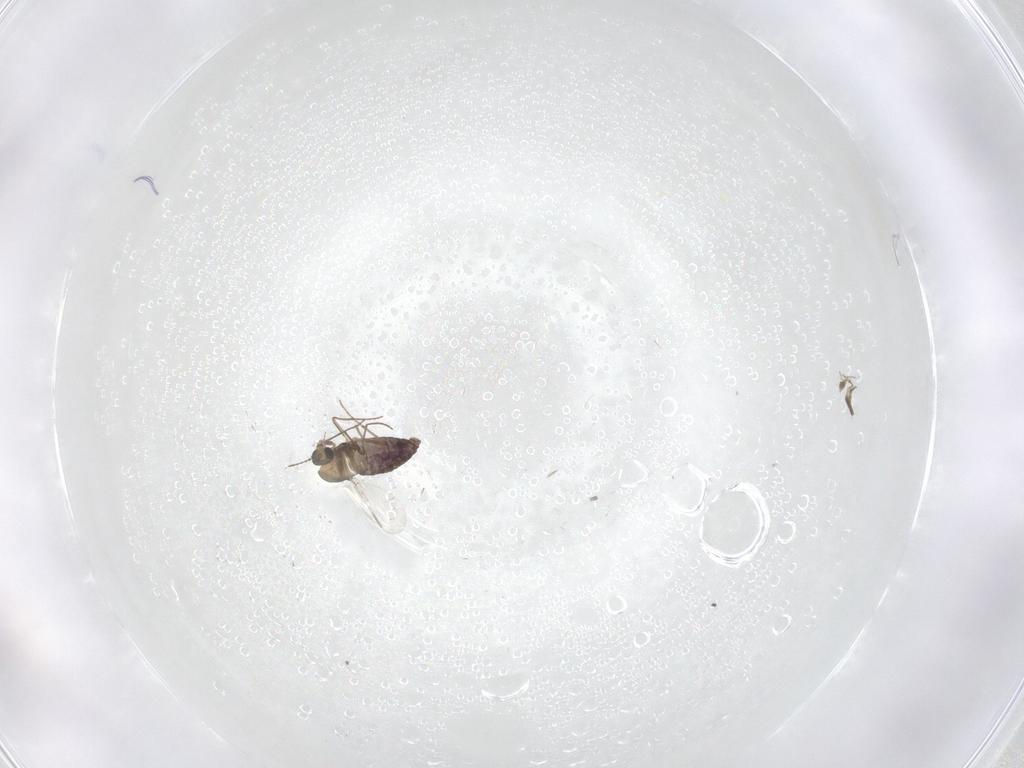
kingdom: Animalia
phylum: Arthropoda
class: Insecta
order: Diptera
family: Chironomidae
